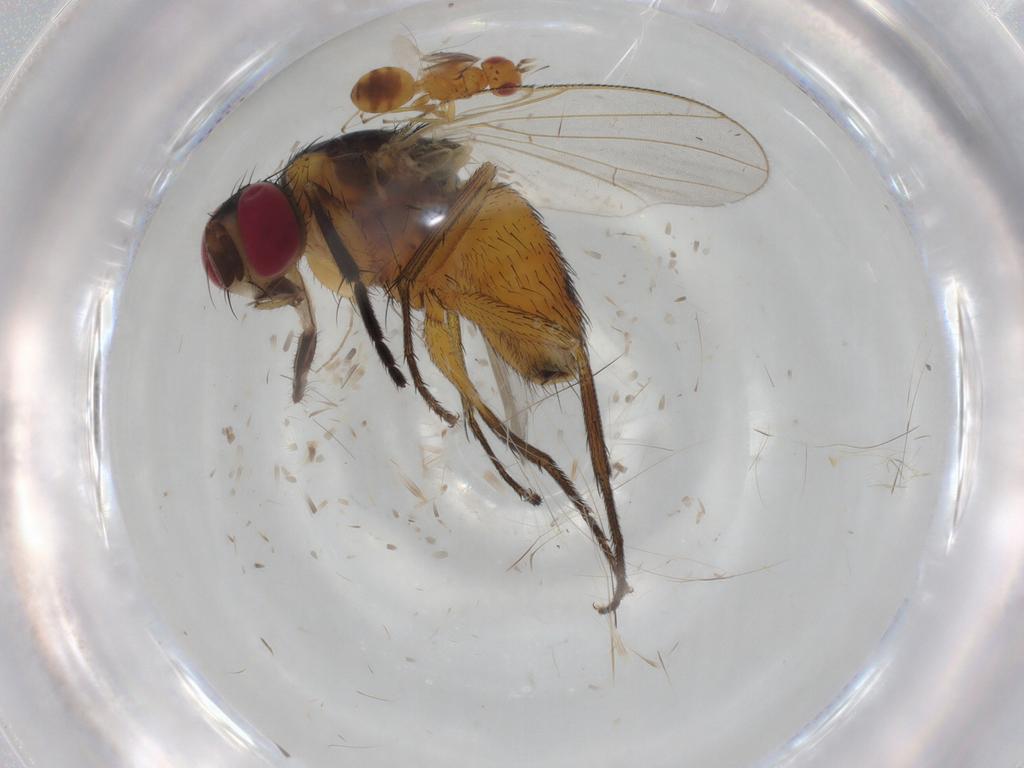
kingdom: Animalia
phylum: Arthropoda
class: Insecta
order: Diptera
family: Muscidae
